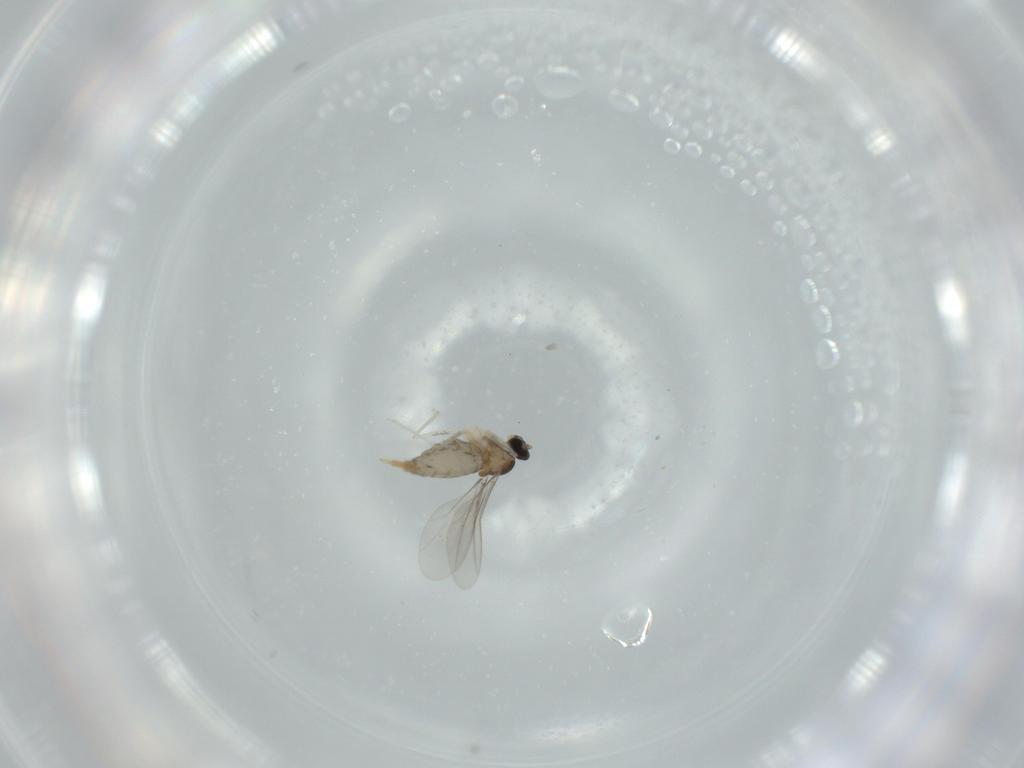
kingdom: Animalia
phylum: Arthropoda
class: Insecta
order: Diptera
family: Cecidomyiidae
